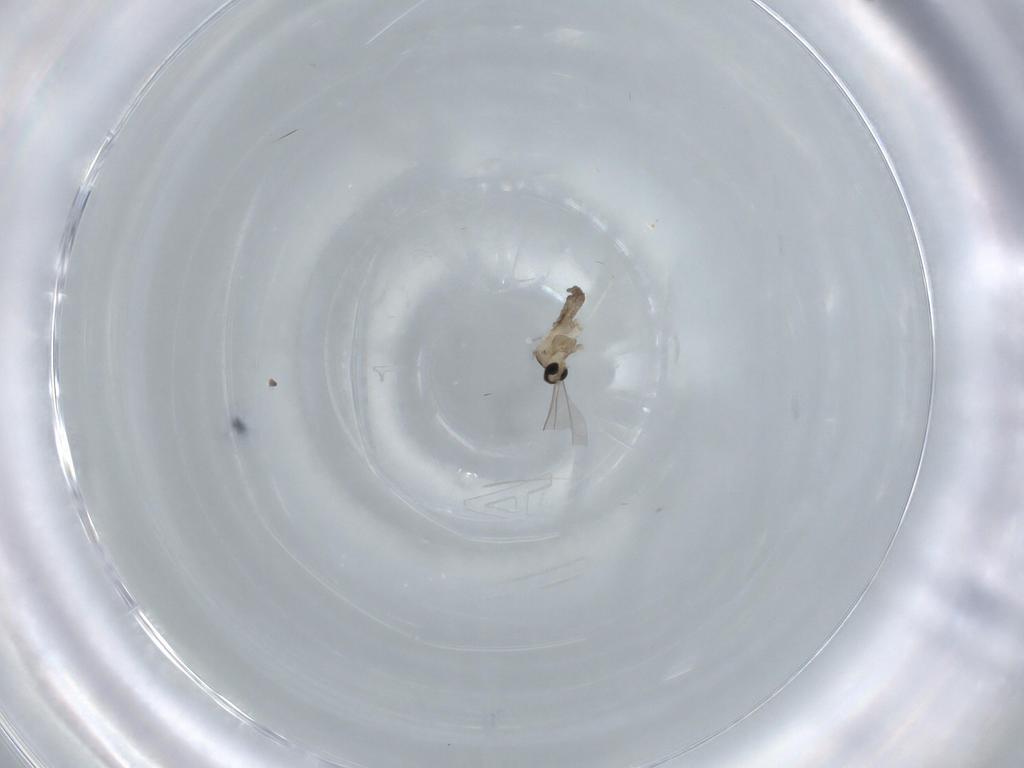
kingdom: Animalia
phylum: Arthropoda
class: Insecta
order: Diptera
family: Cecidomyiidae
